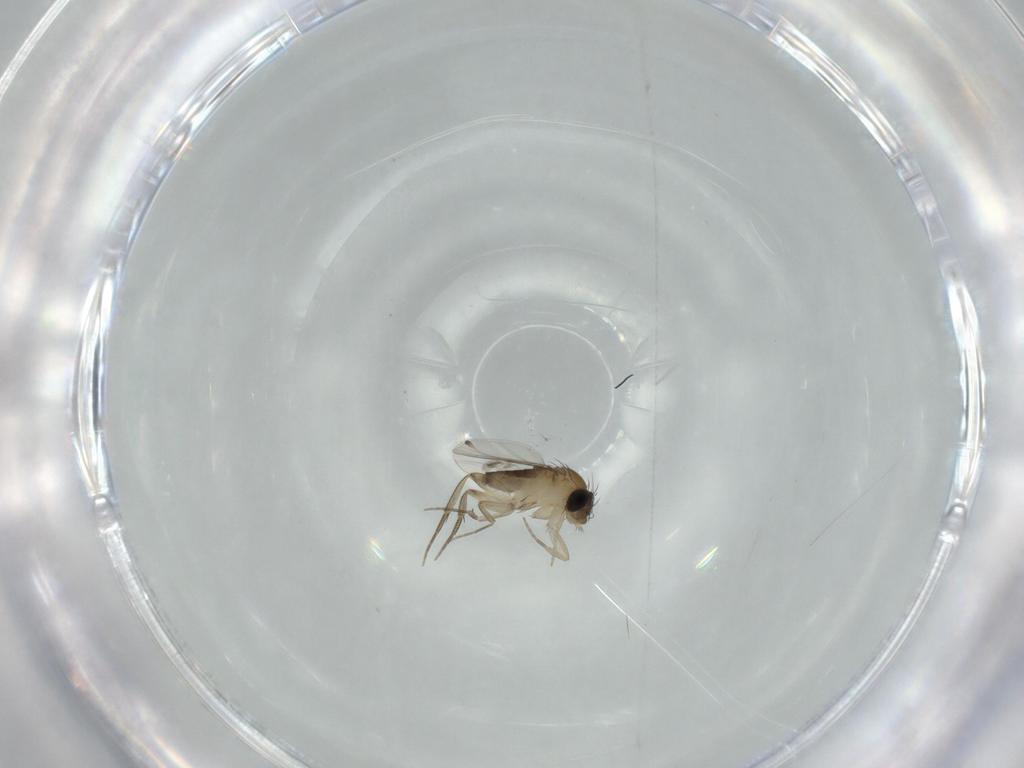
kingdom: Animalia
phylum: Arthropoda
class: Insecta
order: Diptera
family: Phoridae
